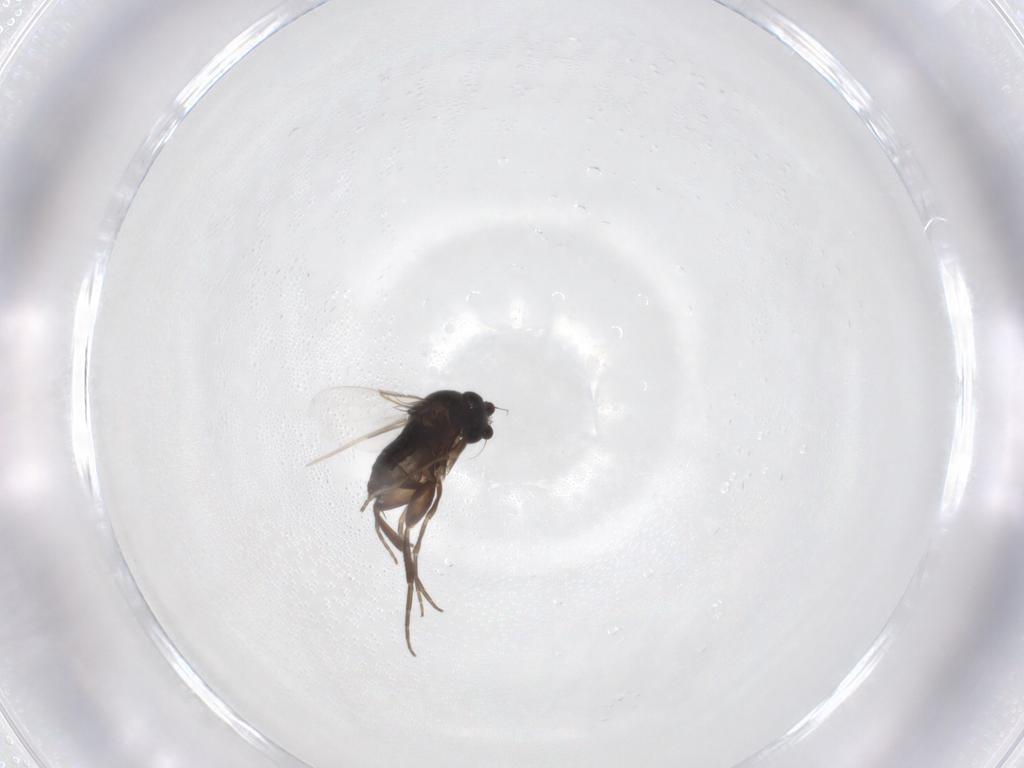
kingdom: Animalia
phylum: Arthropoda
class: Insecta
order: Diptera
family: Phoridae
